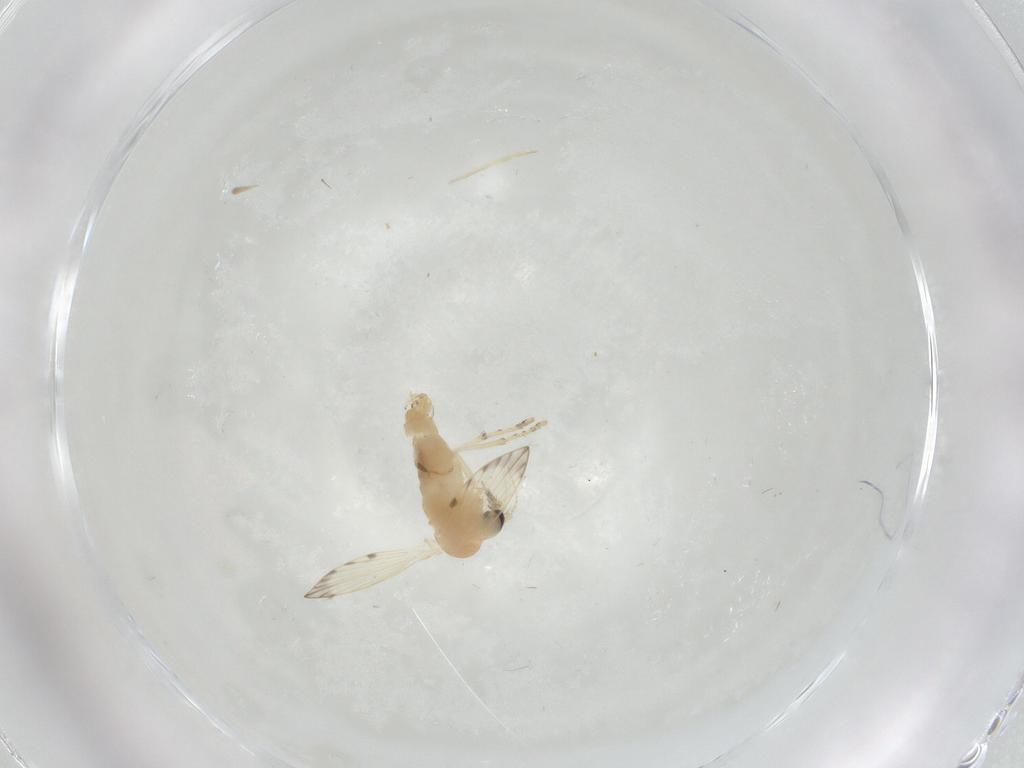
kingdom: Animalia
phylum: Arthropoda
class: Insecta
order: Diptera
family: Psychodidae
